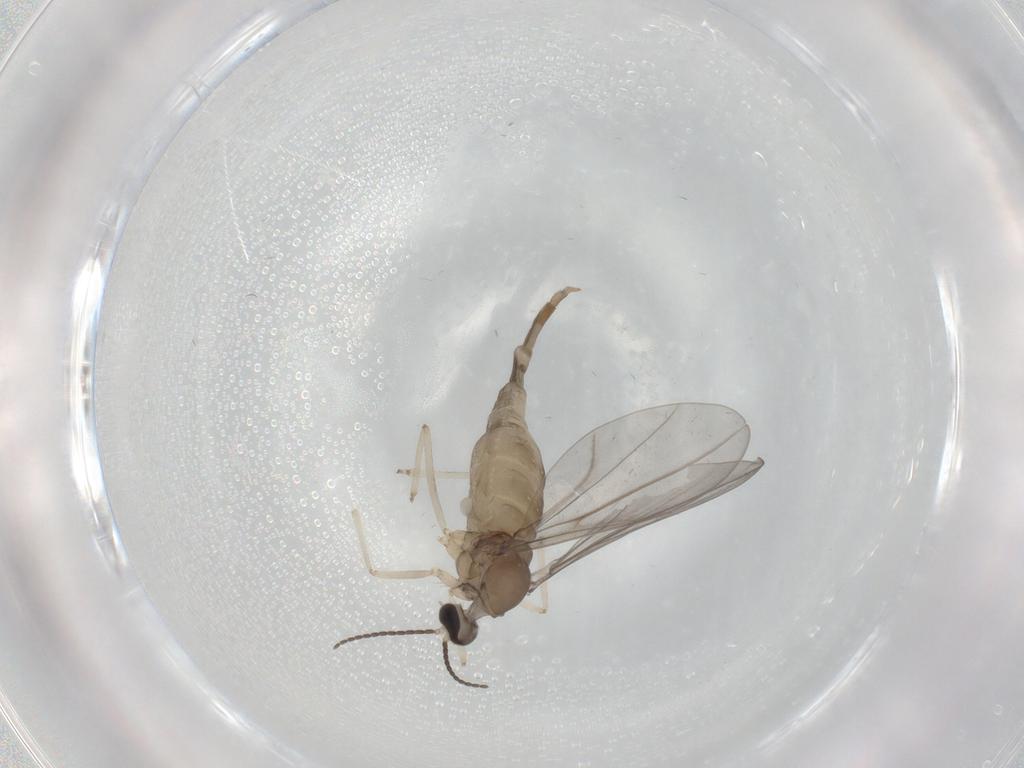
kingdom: Animalia
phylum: Arthropoda
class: Insecta
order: Diptera
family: Cecidomyiidae
